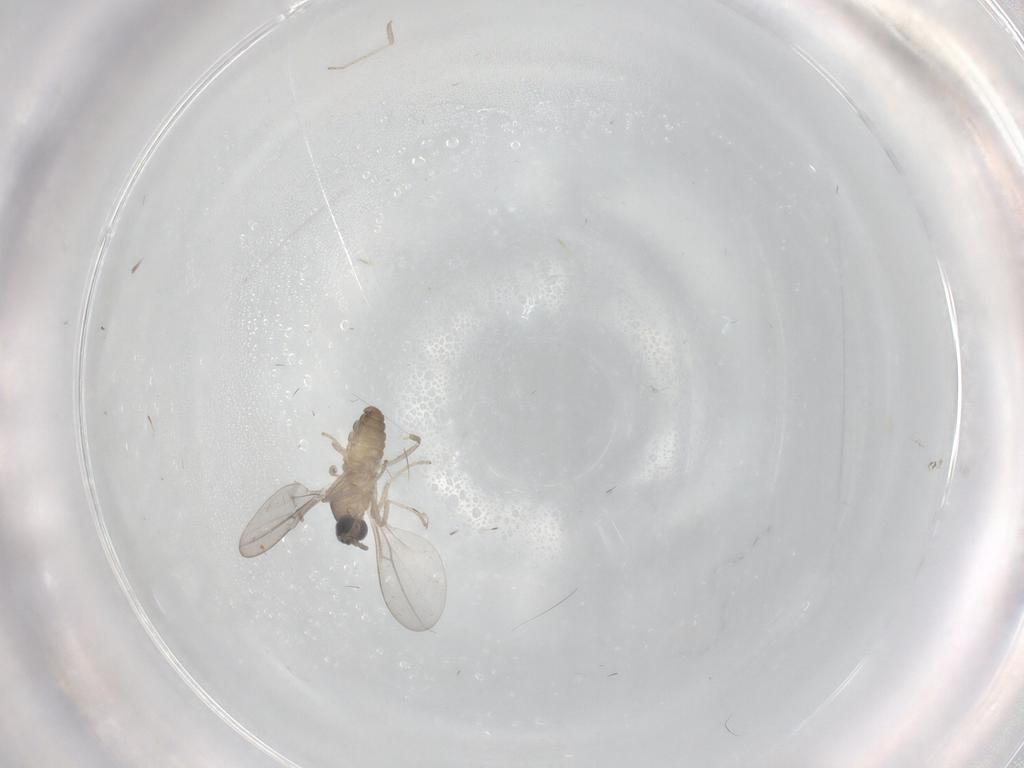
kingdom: Animalia
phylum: Arthropoda
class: Insecta
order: Diptera
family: Cecidomyiidae
